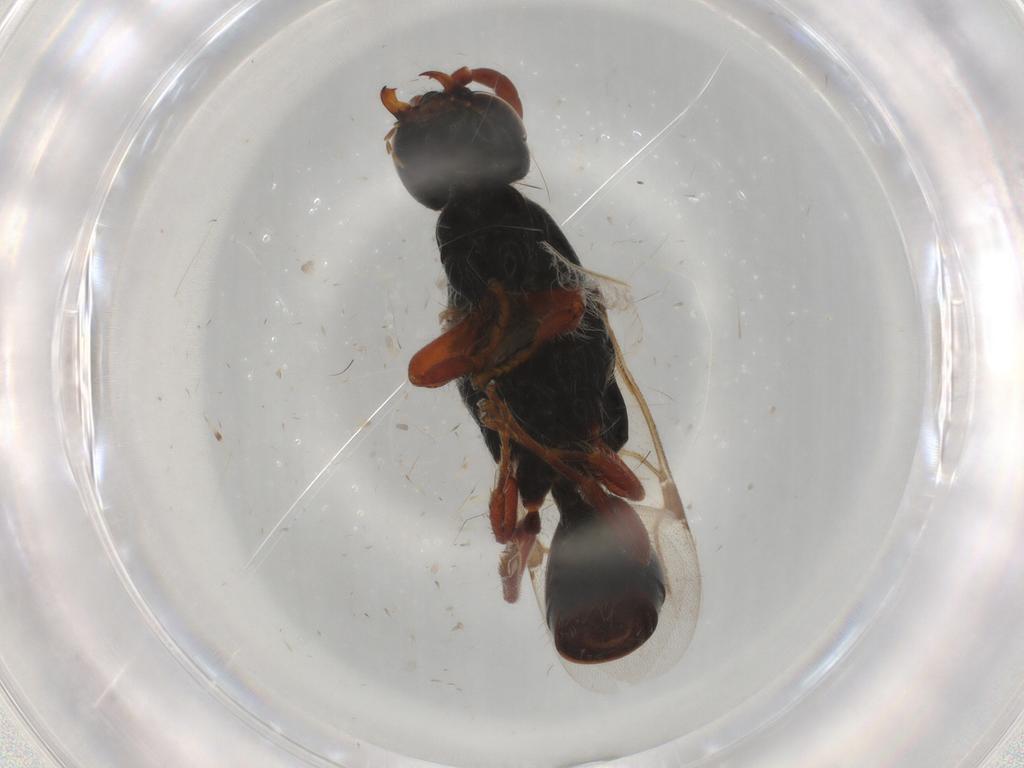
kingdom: Animalia
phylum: Arthropoda
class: Insecta
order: Hymenoptera
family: Bethylidae
